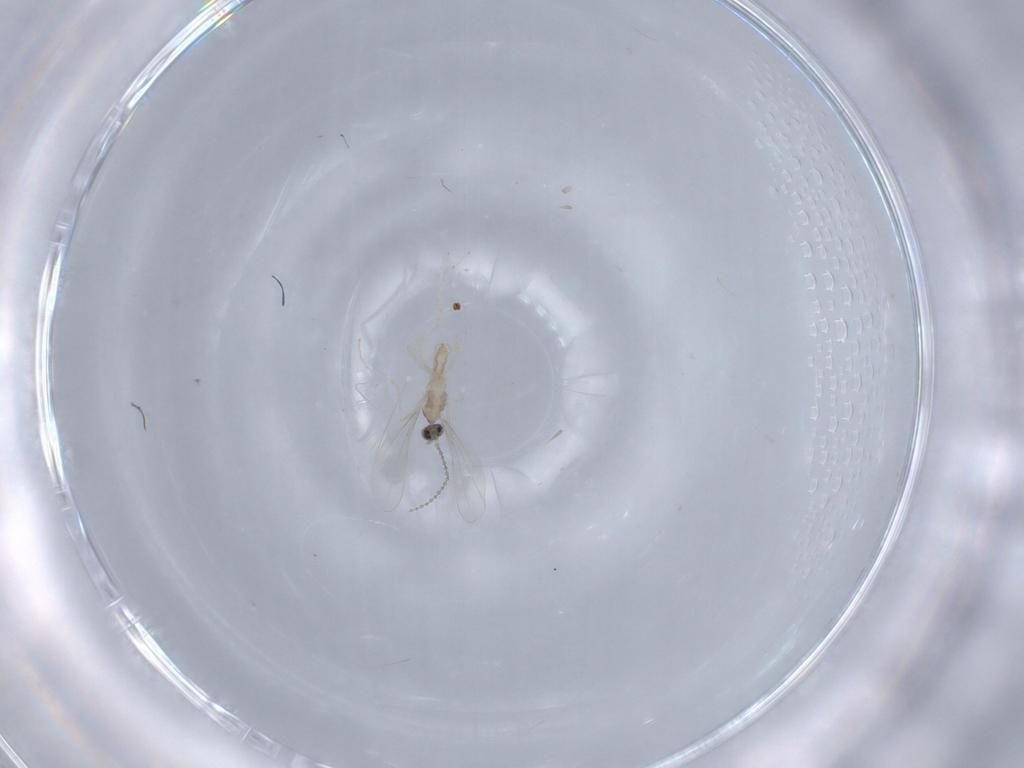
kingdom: Animalia
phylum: Arthropoda
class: Insecta
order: Diptera
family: Cecidomyiidae
